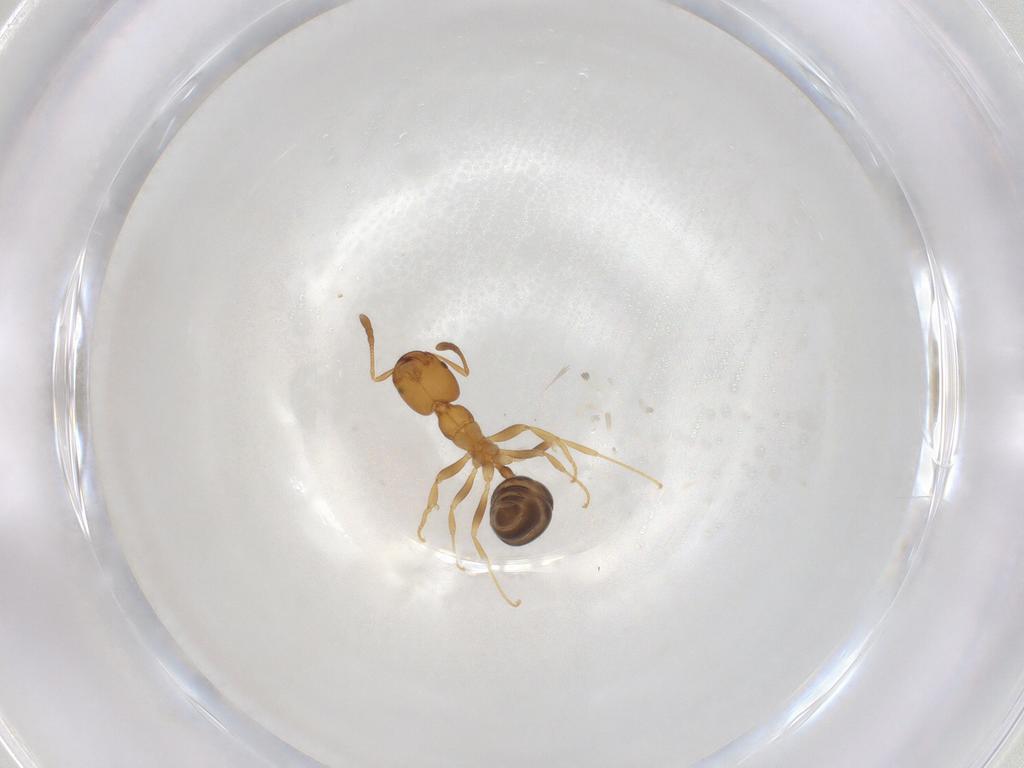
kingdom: Animalia
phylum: Arthropoda
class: Insecta
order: Hymenoptera
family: Formicidae
